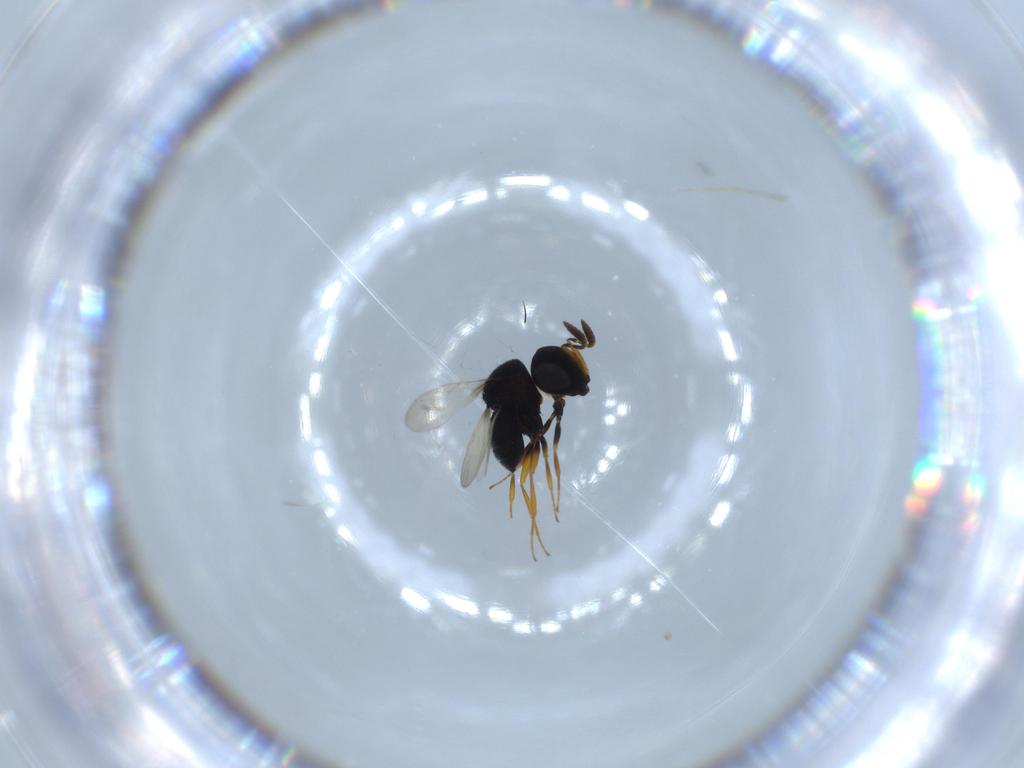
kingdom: Animalia
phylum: Arthropoda
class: Insecta
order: Hymenoptera
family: Scelionidae
